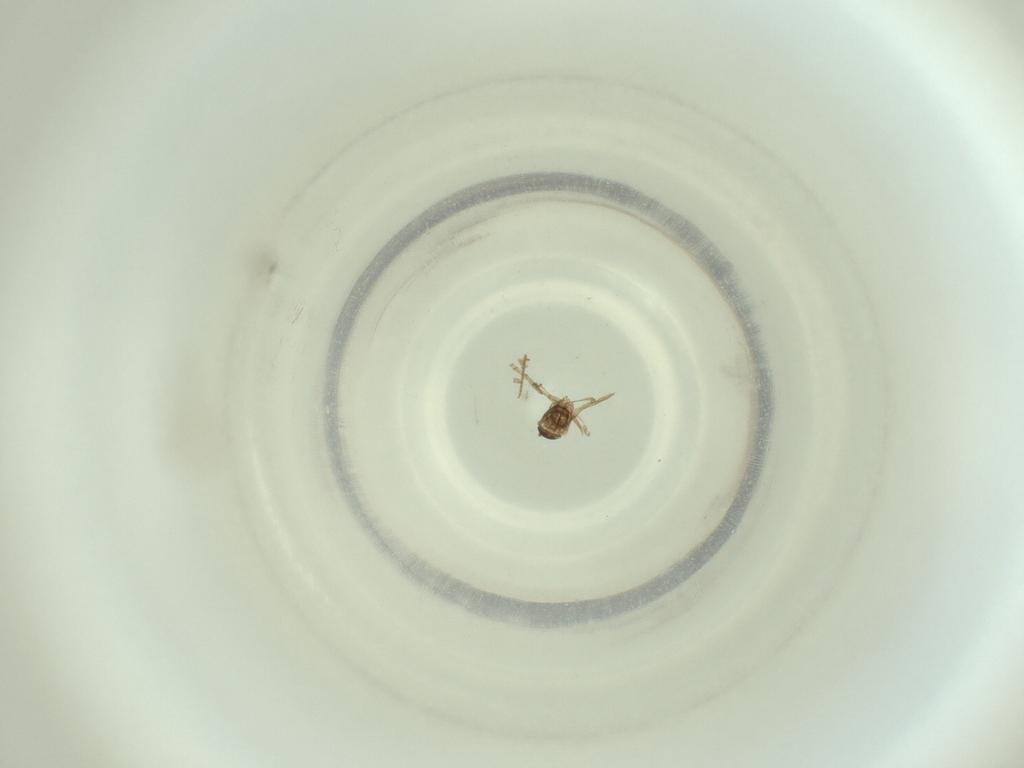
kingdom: Animalia
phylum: Arthropoda
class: Insecta
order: Diptera
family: Cecidomyiidae
